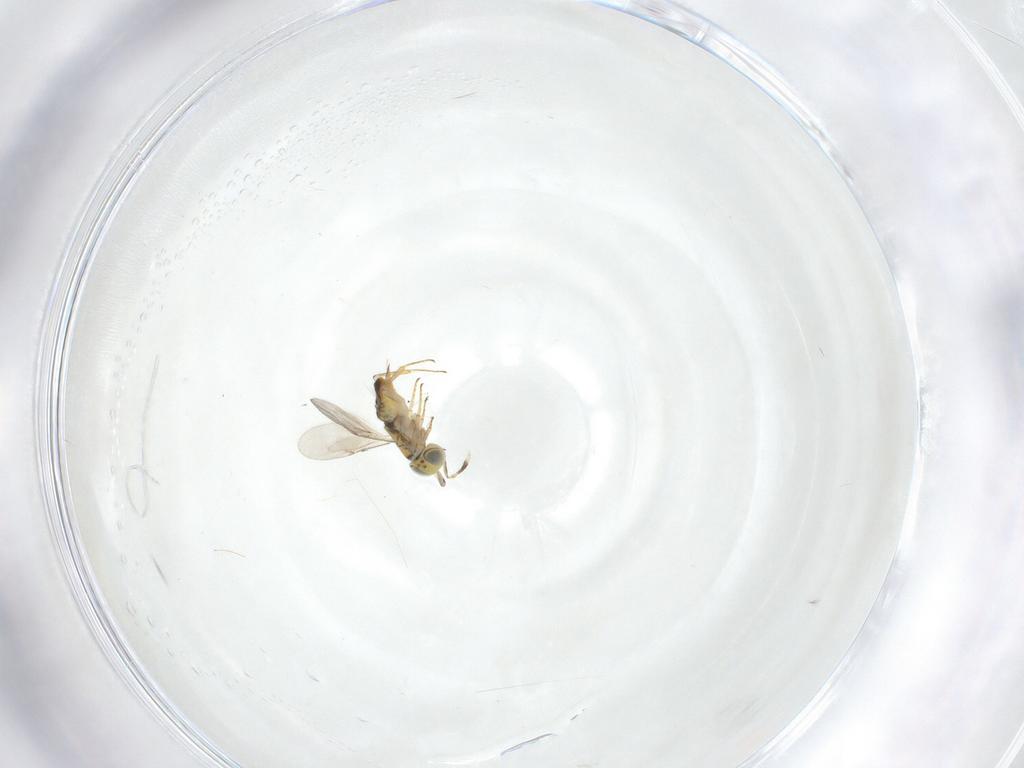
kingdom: Animalia
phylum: Arthropoda
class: Insecta
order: Hymenoptera
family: Encyrtidae
